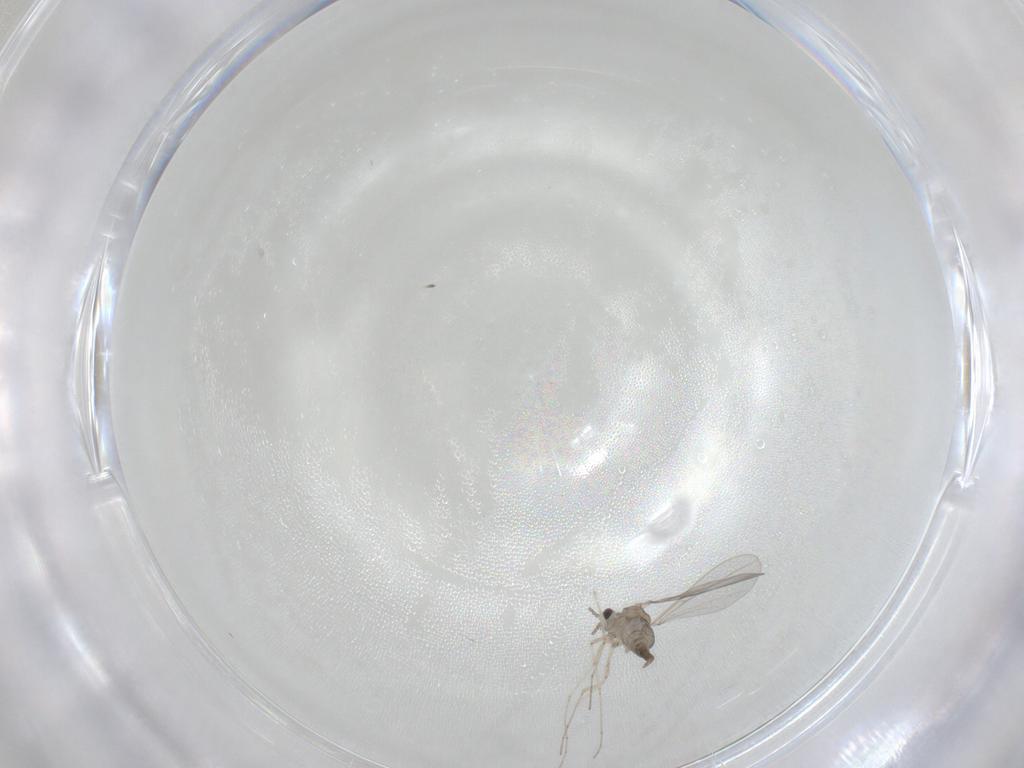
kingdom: Animalia
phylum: Arthropoda
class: Insecta
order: Diptera
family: Cecidomyiidae
